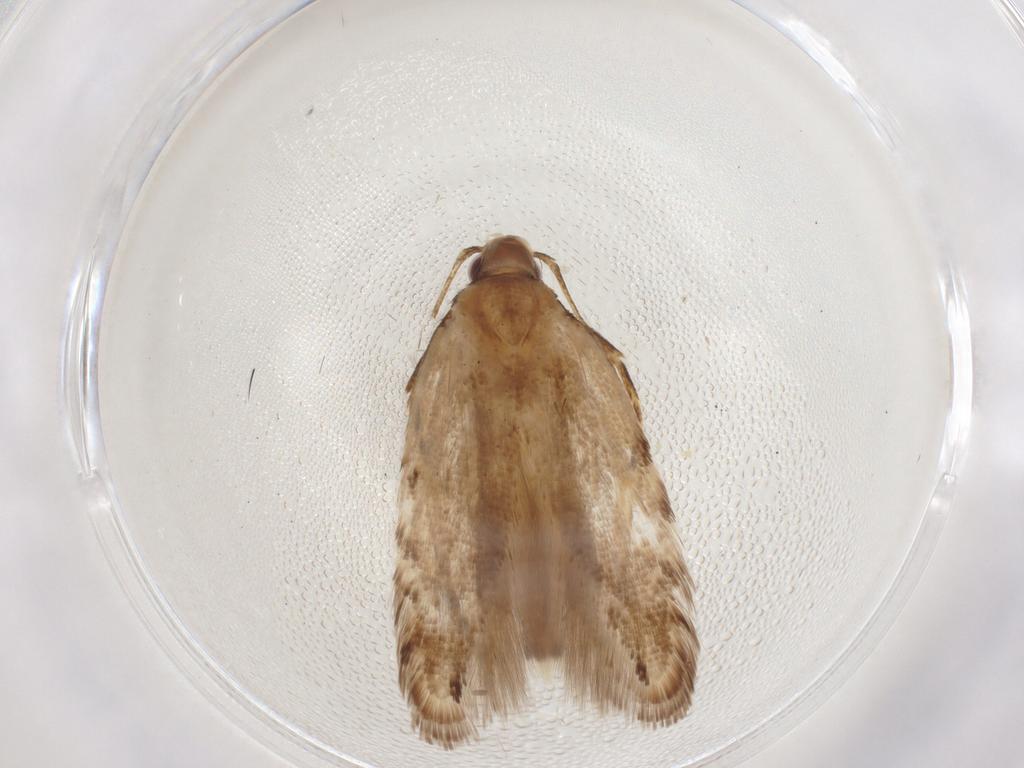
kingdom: Animalia
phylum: Arthropoda
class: Insecta
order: Lepidoptera
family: Gelechiidae
